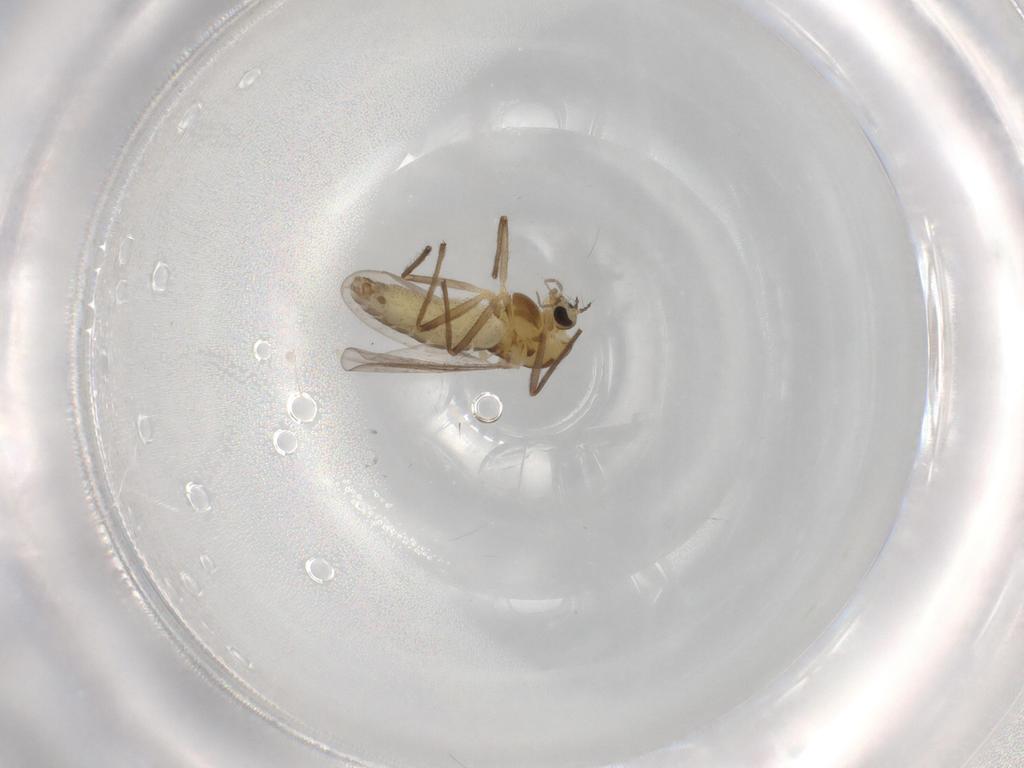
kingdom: Animalia
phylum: Arthropoda
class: Insecta
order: Diptera
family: Chironomidae
